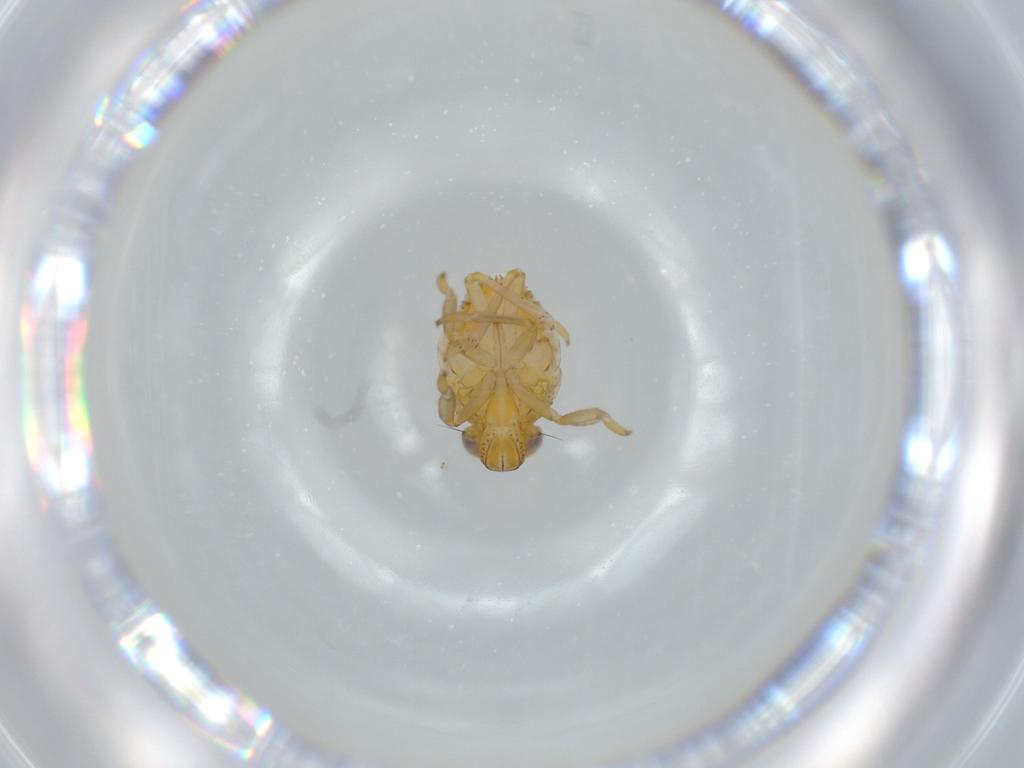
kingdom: Animalia
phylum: Arthropoda
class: Insecta
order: Hemiptera
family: Issidae
